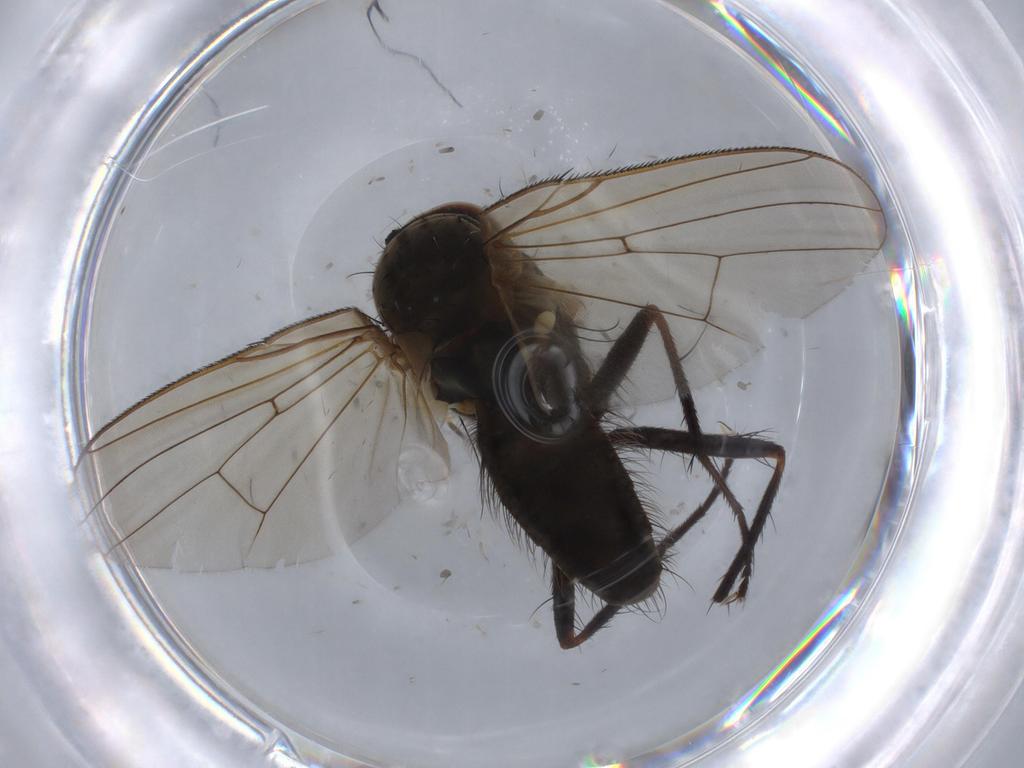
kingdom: Animalia
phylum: Arthropoda
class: Insecta
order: Diptera
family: Anthomyiidae
